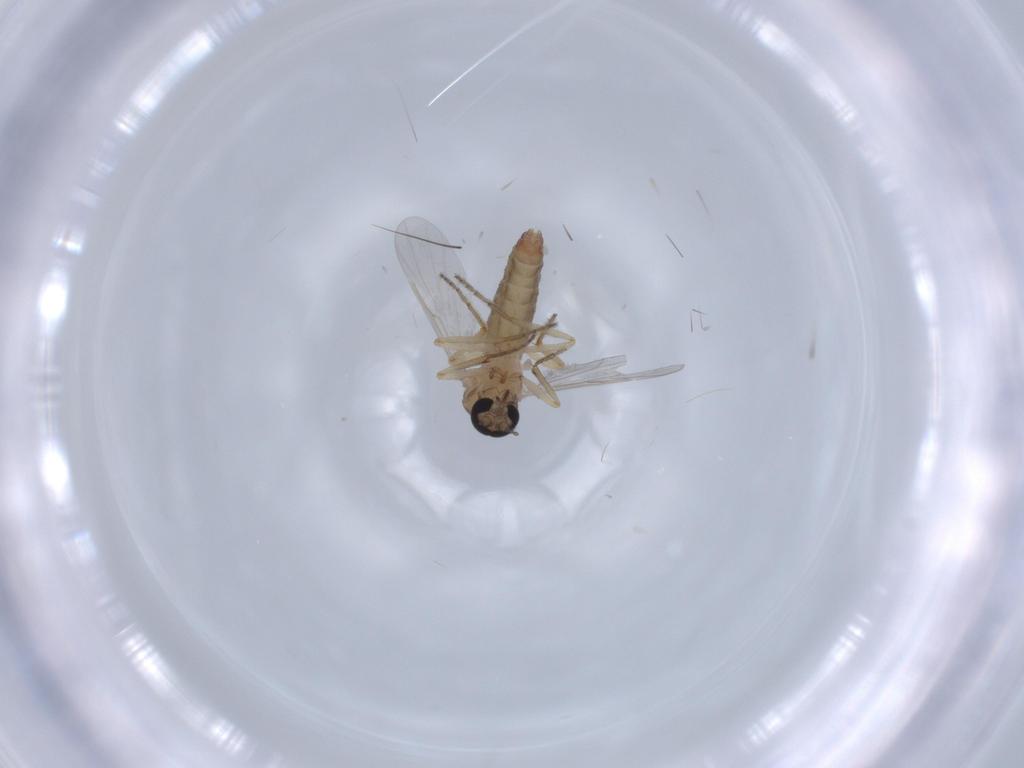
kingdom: Animalia
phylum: Arthropoda
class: Insecta
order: Diptera
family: Ceratopogonidae
